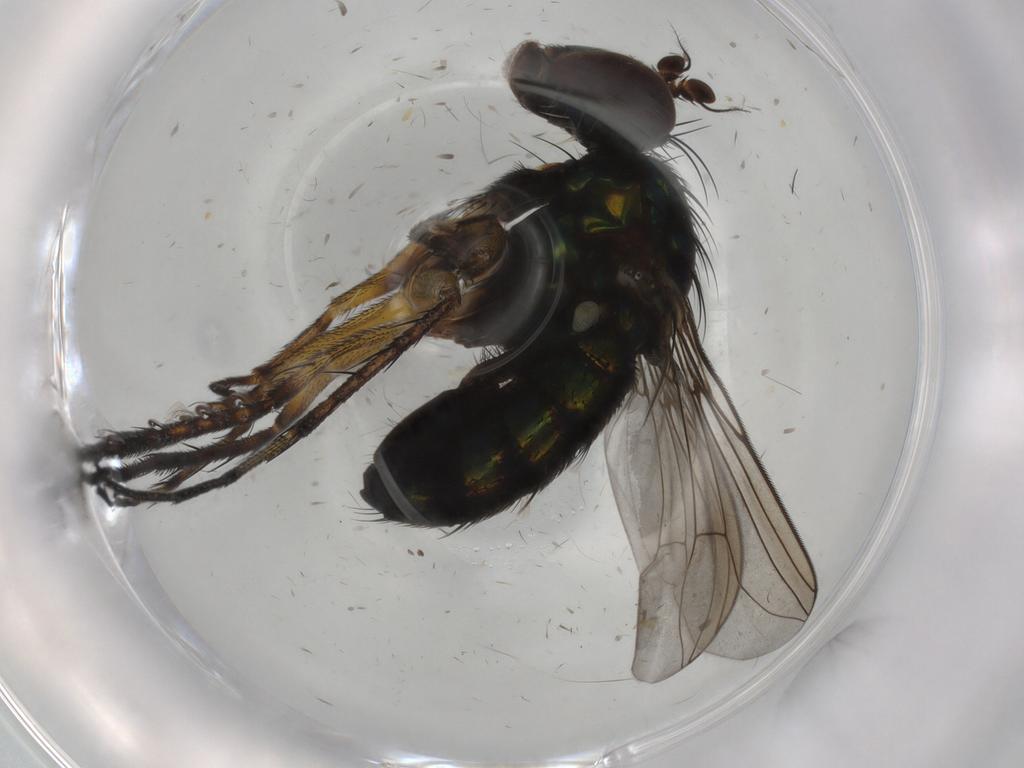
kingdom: Animalia
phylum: Arthropoda
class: Insecta
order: Diptera
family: Dolichopodidae
